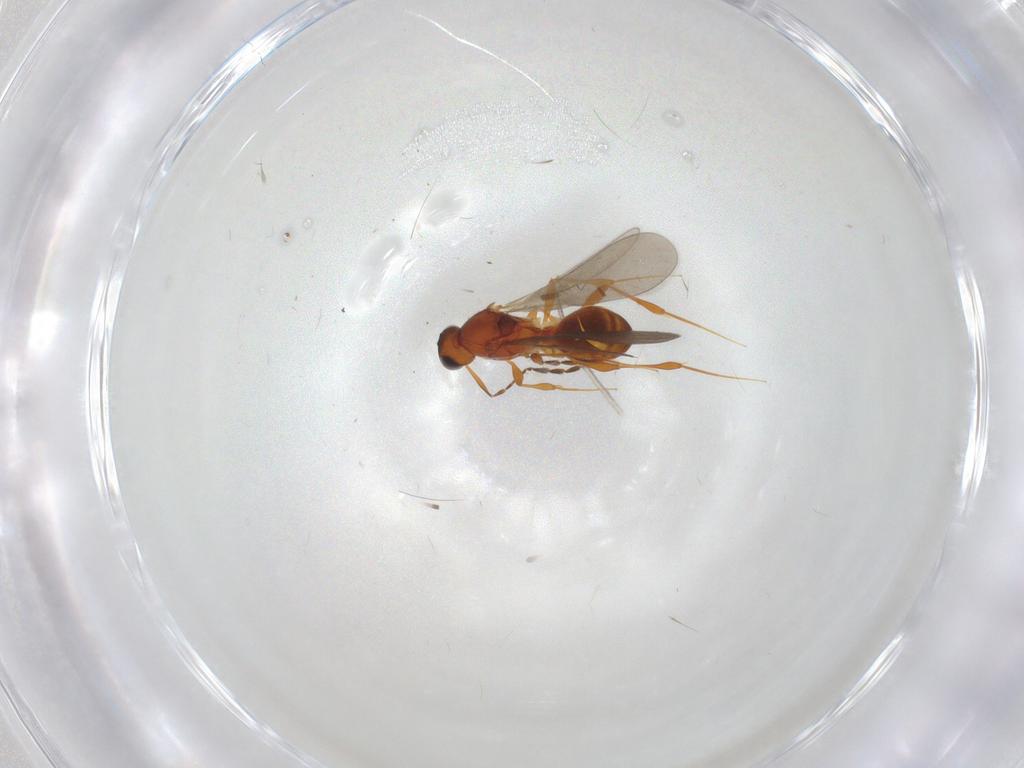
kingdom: Animalia
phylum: Arthropoda
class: Insecta
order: Hymenoptera
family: Platygastridae
